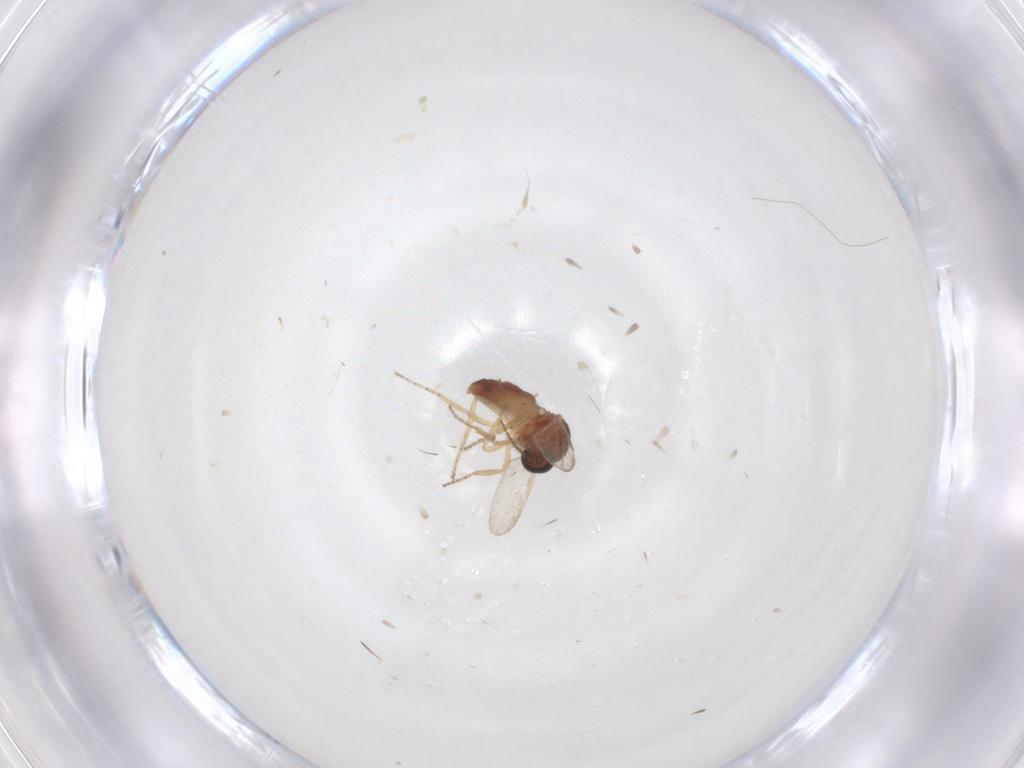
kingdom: Animalia
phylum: Arthropoda
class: Insecta
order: Diptera
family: Ceratopogonidae
